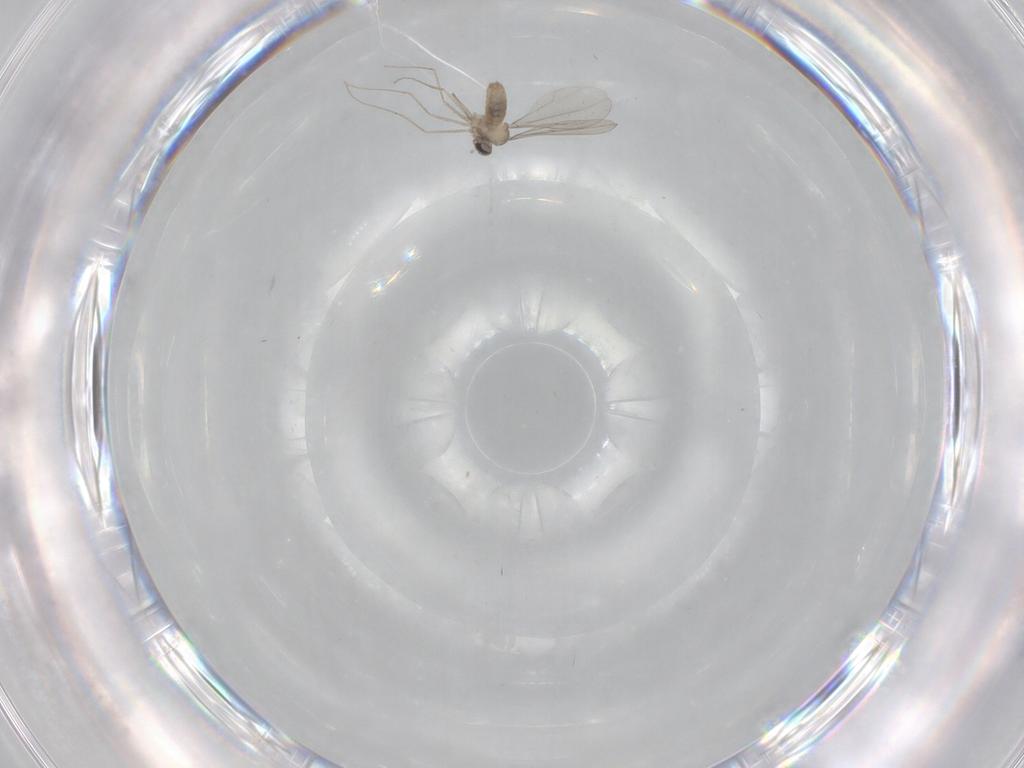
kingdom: Animalia
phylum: Arthropoda
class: Insecta
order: Diptera
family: Cecidomyiidae
